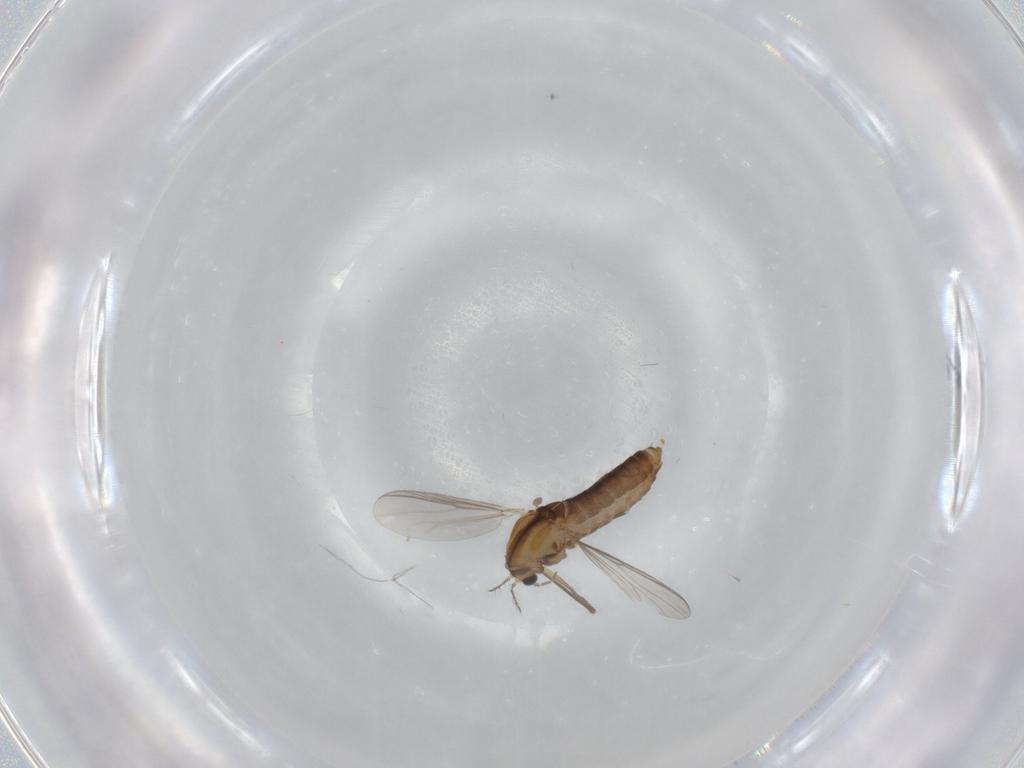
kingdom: Animalia
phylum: Arthropoda
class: Insecta
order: Diptera
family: Chironomidae
